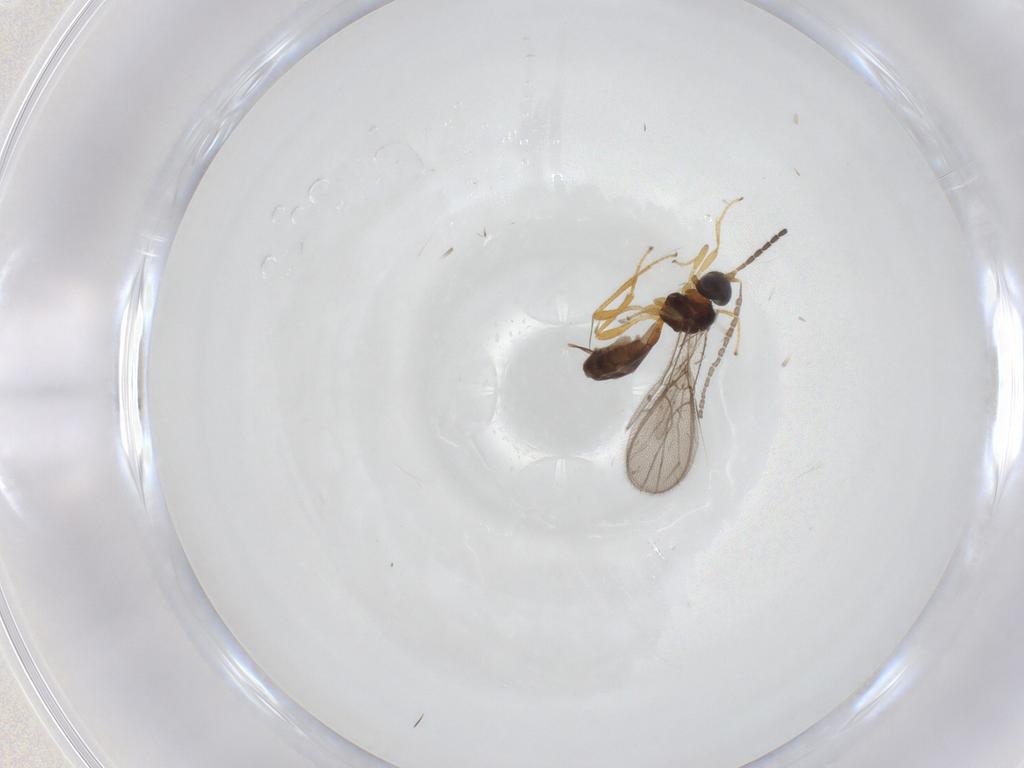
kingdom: Animalia
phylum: Arthropoda
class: Insecta
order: Hymenoptera
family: Braconidae
